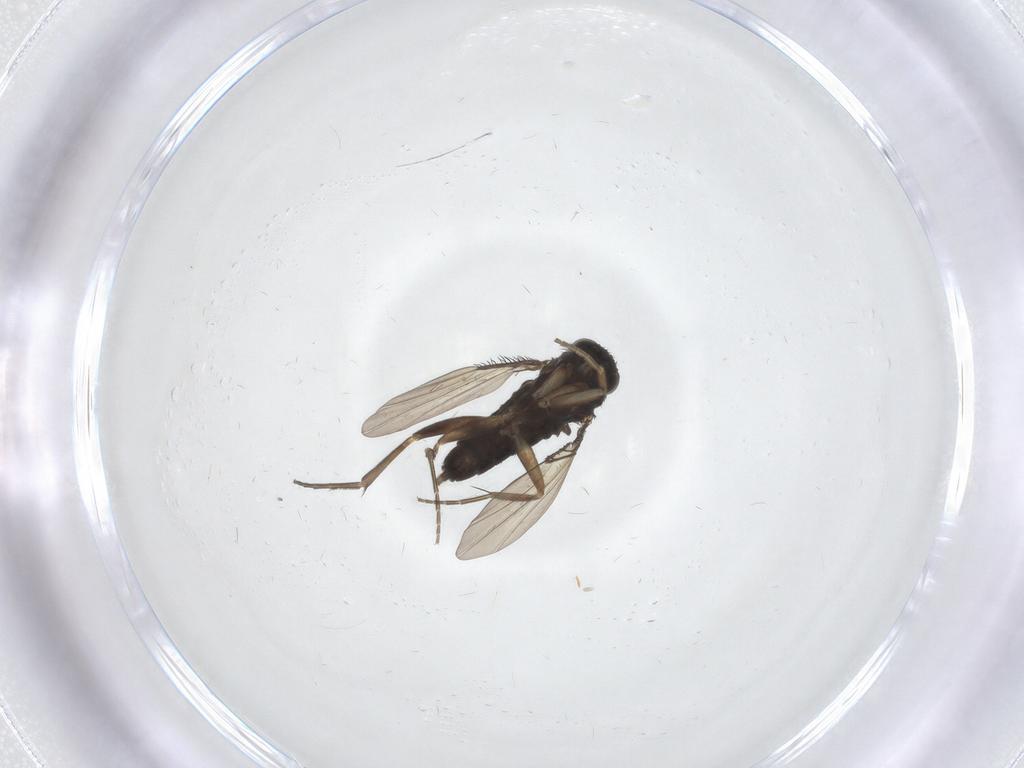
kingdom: Animalia
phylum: Arthropoda
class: Insecta
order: Diptera
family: Phoridae
